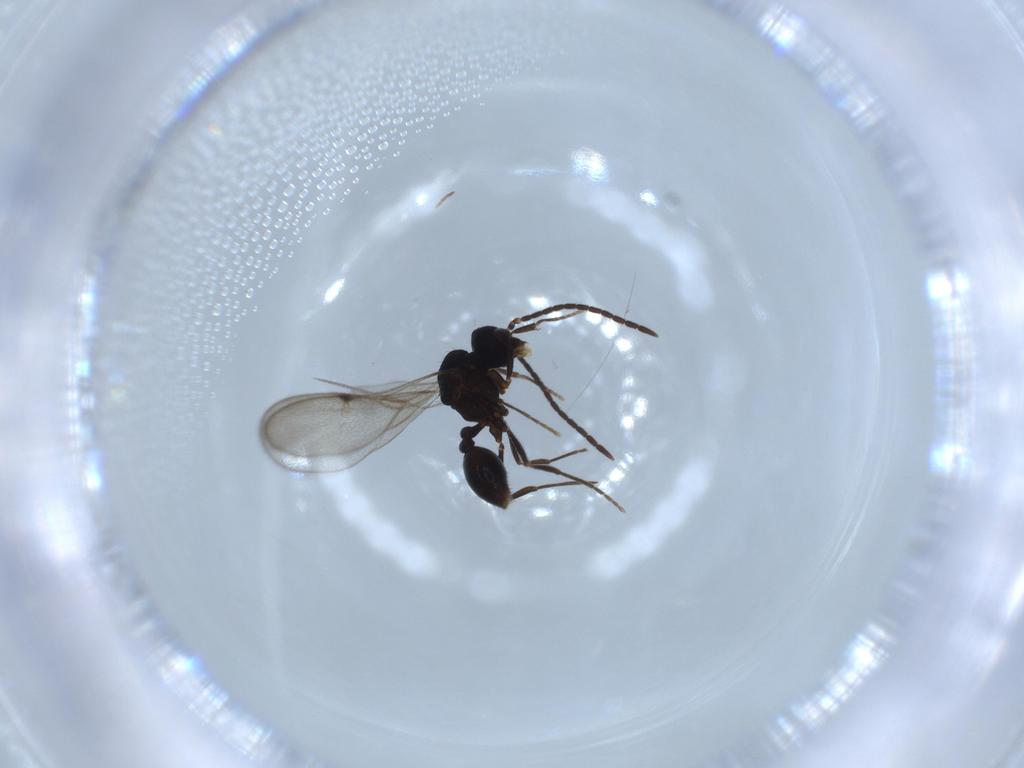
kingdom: Animalia
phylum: Arthropoda
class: Insecta
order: Hymenoptera
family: Formicidae
